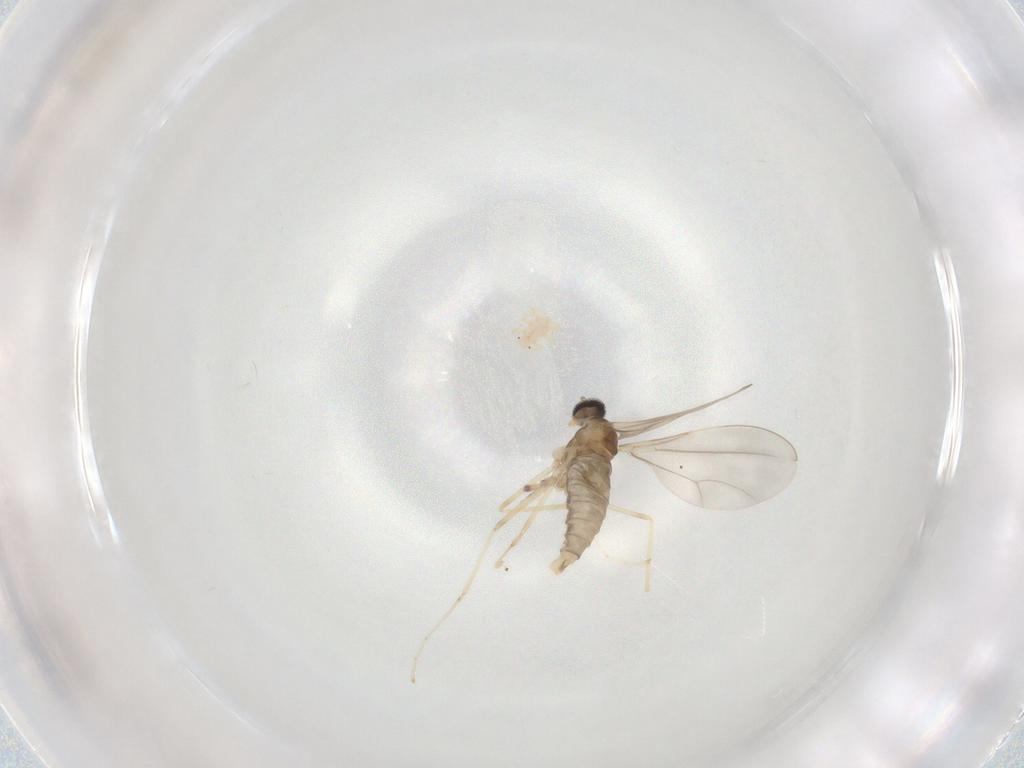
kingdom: Animalia
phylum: Arthropoda
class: Insecta
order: Diptera
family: Cecidomyiidae
